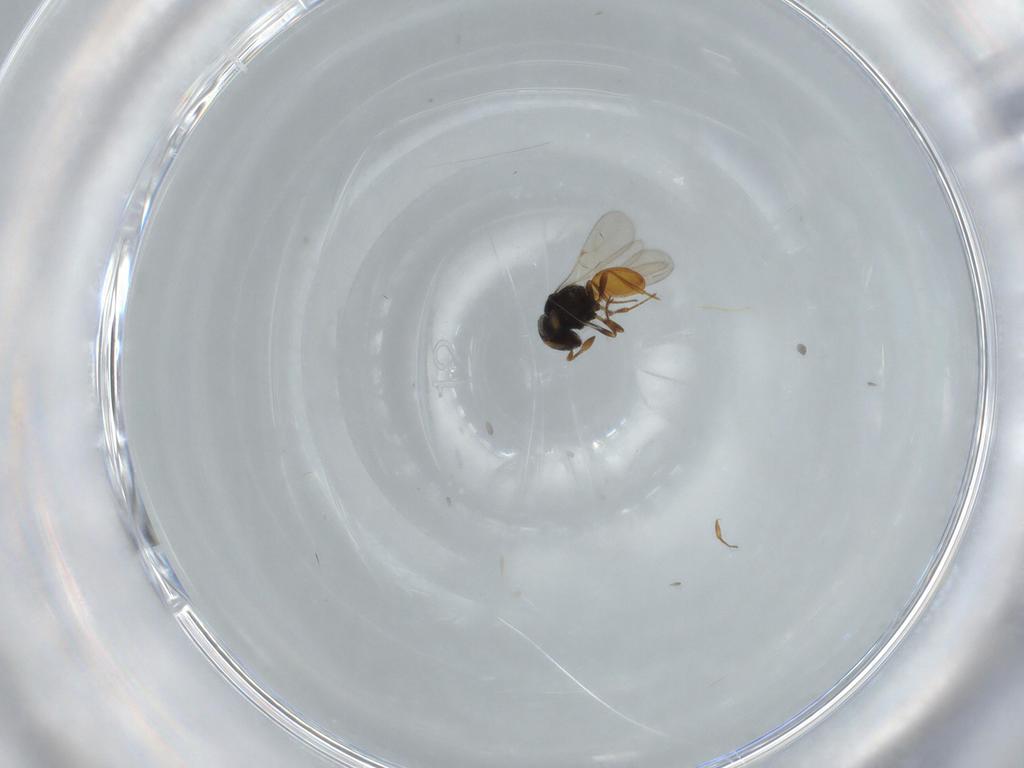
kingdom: Animalia
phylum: Arthropoda
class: Insecta
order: Hymenoptera
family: Scelionidae
